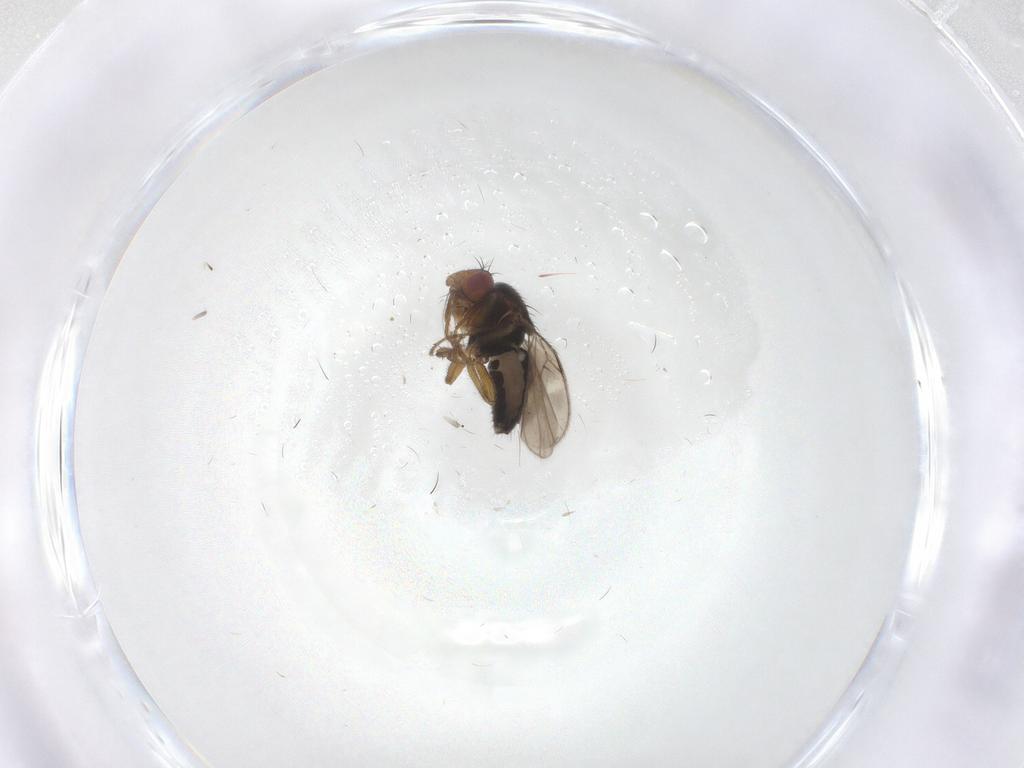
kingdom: Animalia
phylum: Arthropoda
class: Insecta
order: Diptera
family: Sphaeroceridae
